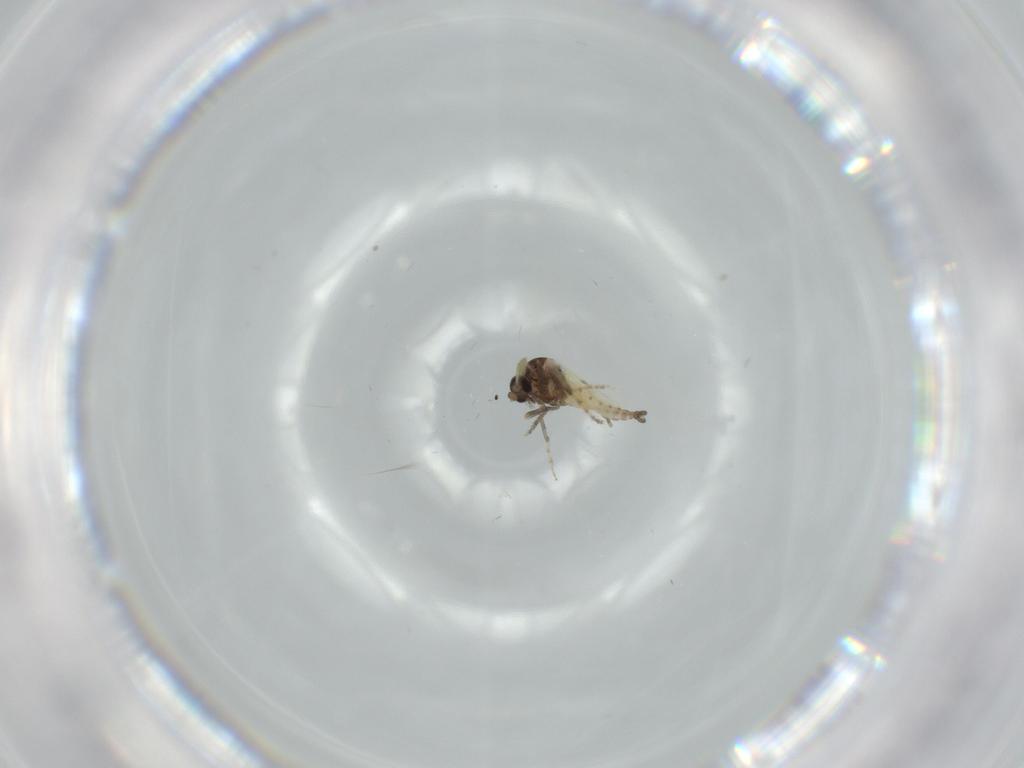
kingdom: Animalia
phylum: Arthropoda
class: Insecta
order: Diptera
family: Ceratopogonidae
